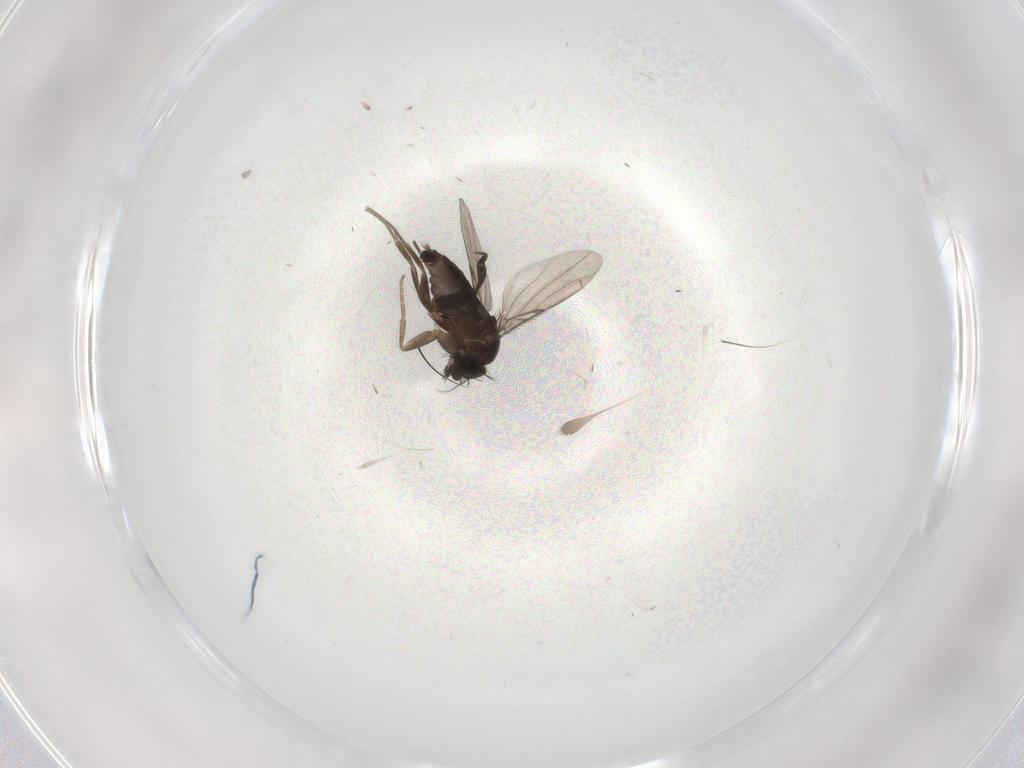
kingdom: Animalia
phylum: Arthropoda
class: Insecta
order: Diptera
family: Phoridae
